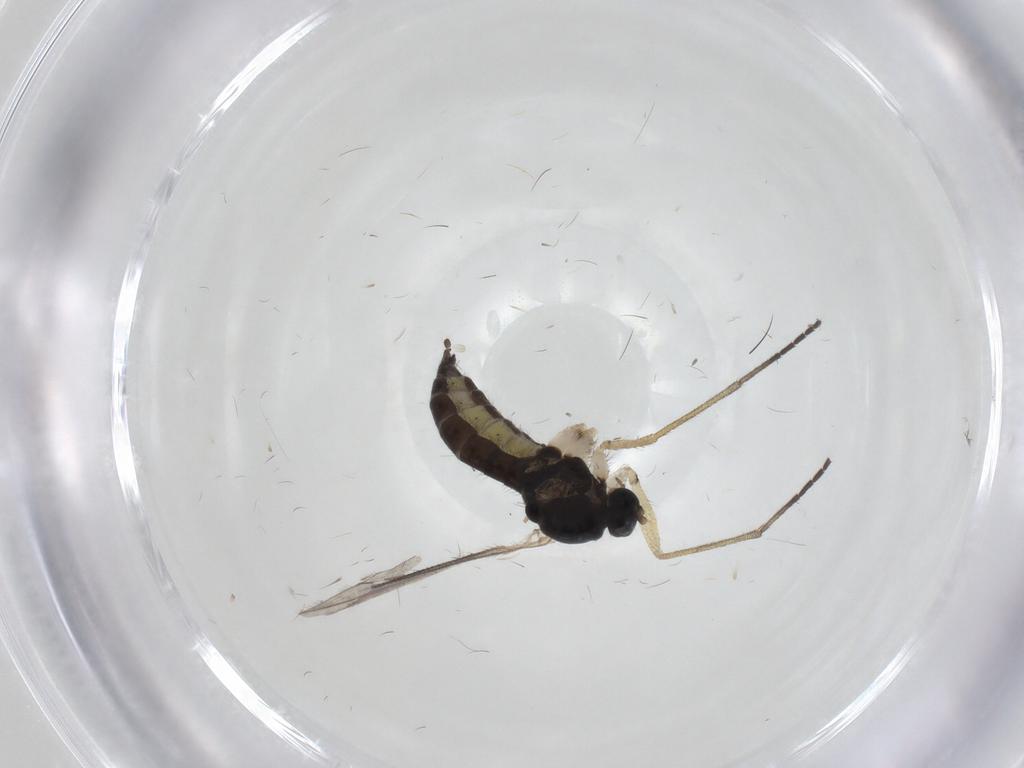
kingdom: Animalia
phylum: Arthropoda
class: Insecta
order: Diptera
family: Sciaridae
